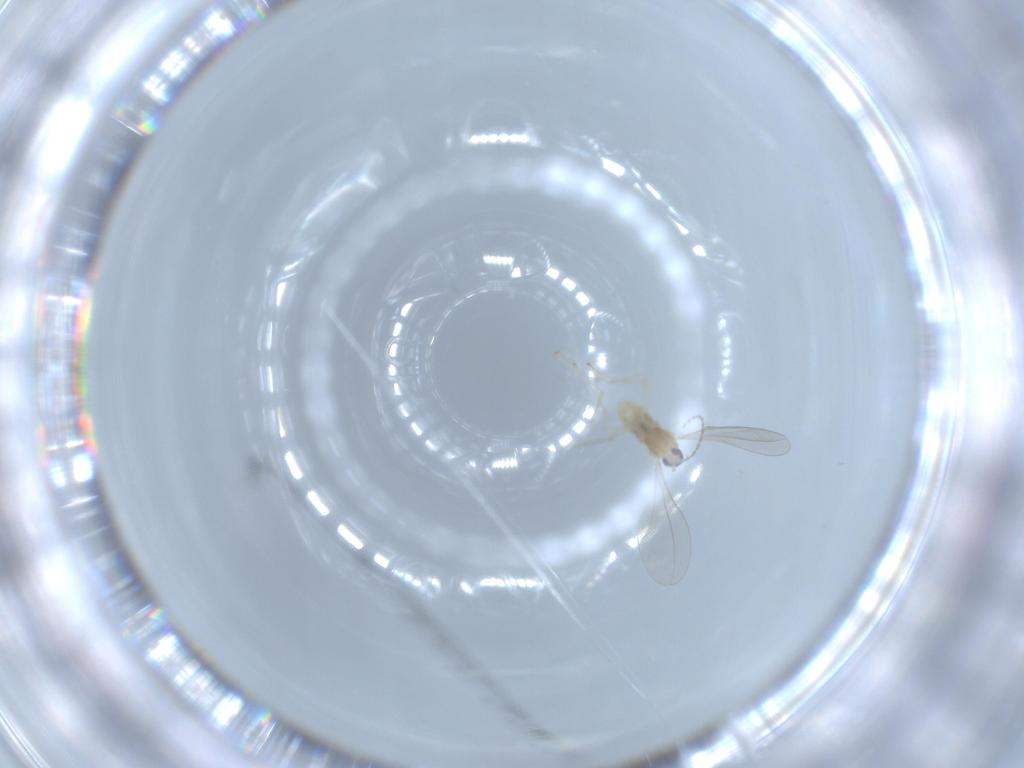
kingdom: Animalia
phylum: Arthropoda
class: Insecta
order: Diptera
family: Cecidomyiidae
